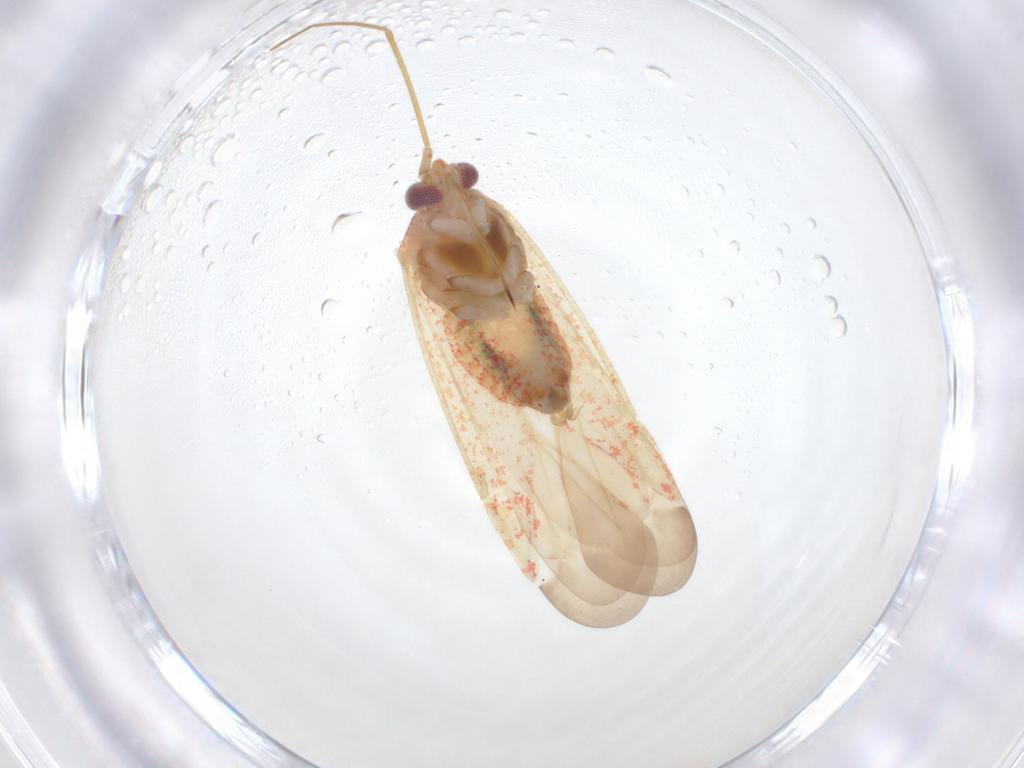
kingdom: Animalia
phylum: Arthropoda
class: Insecta
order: Hemiptera
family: Miridae
